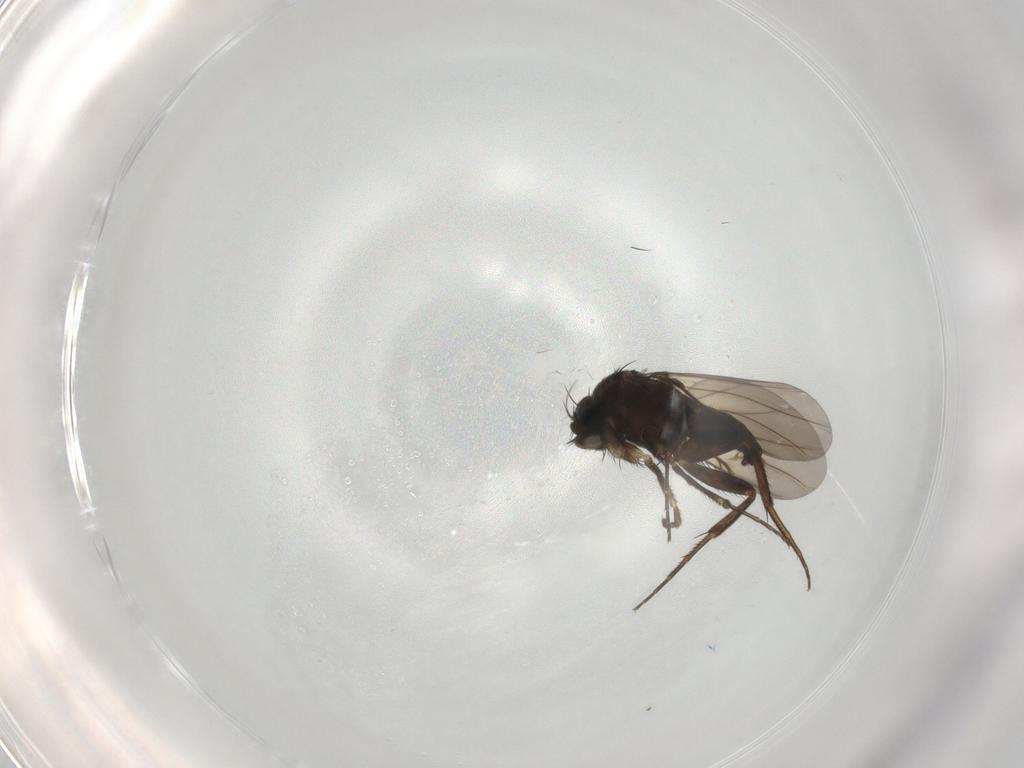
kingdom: Animalia
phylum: Arthropoda
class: Insecta
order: Diptera
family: Phoridae
